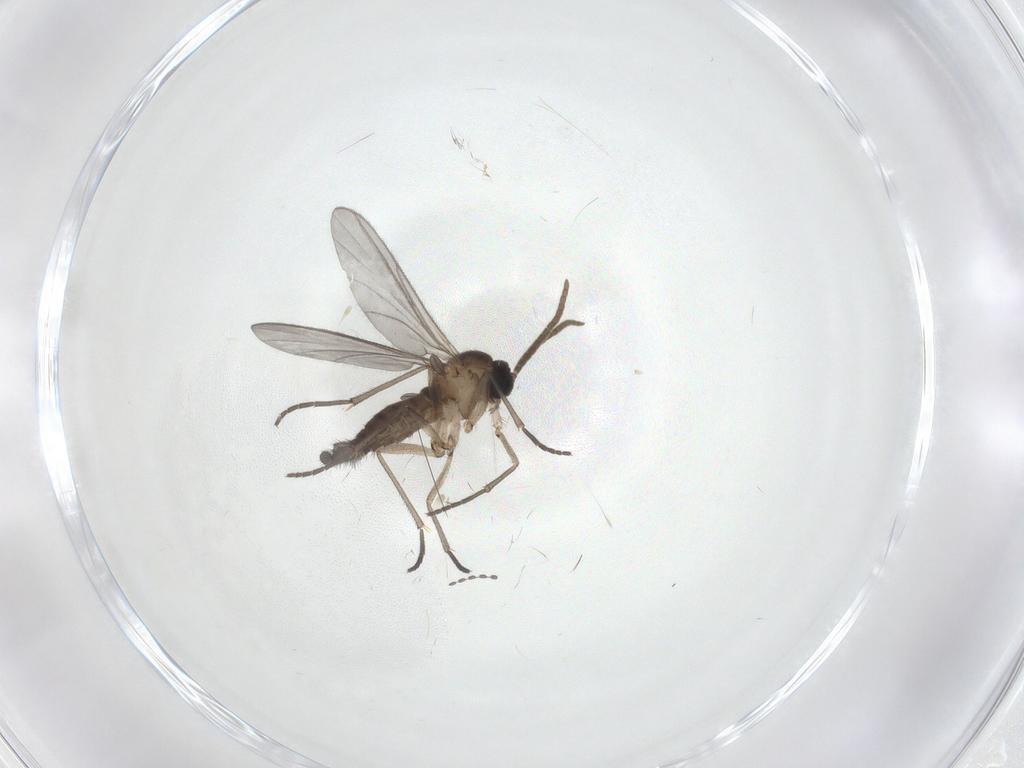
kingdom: Animalia
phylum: Arthropoda
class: Insecta
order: Diptera
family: Cecidomyiidae
